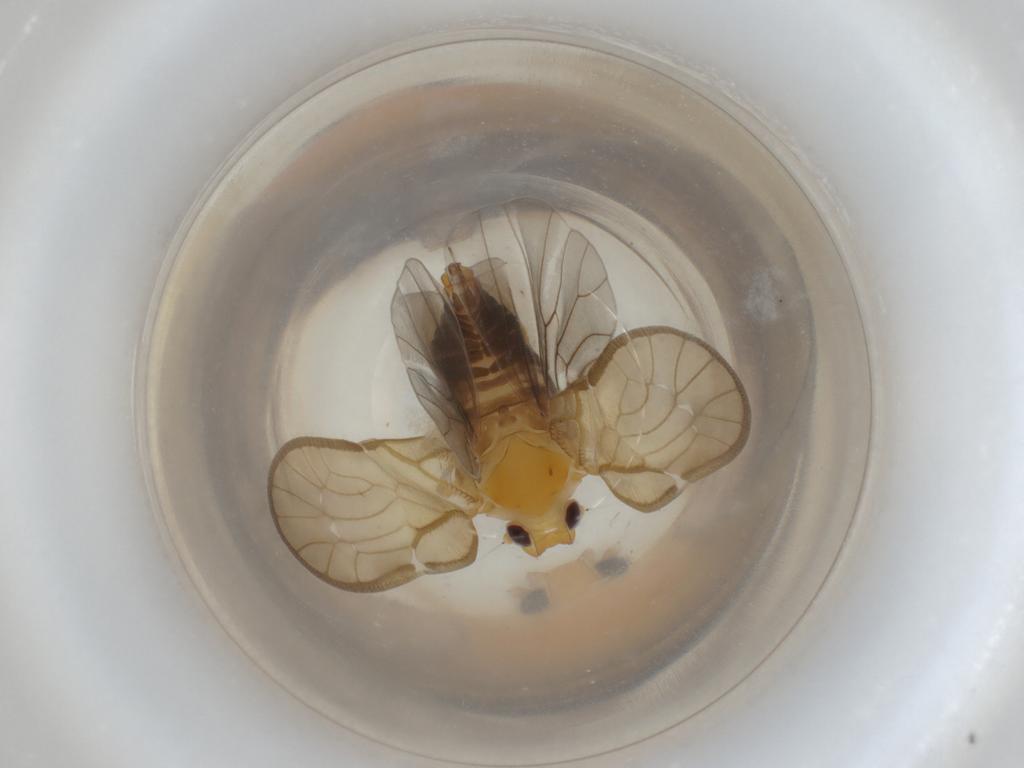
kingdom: Animalia
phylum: Arthropoda
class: Insecta
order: Hemiptera
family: Meenoplidae
